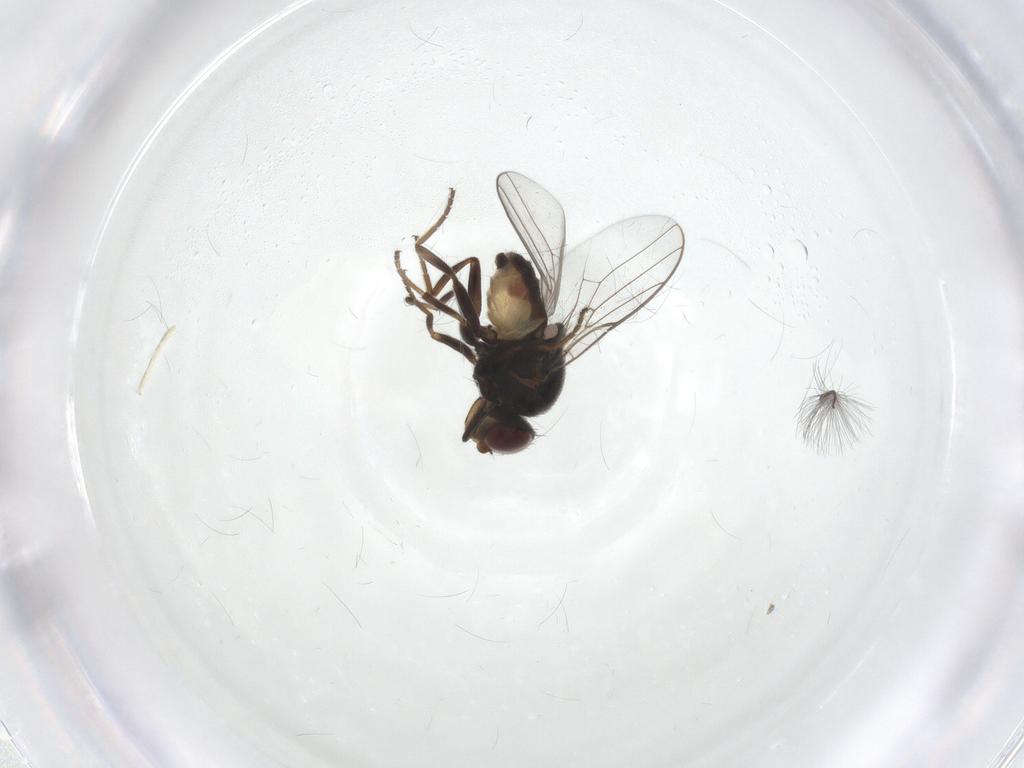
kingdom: Animalia
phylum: Arthropoda
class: Insecta
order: Diptera
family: Chloropidae
